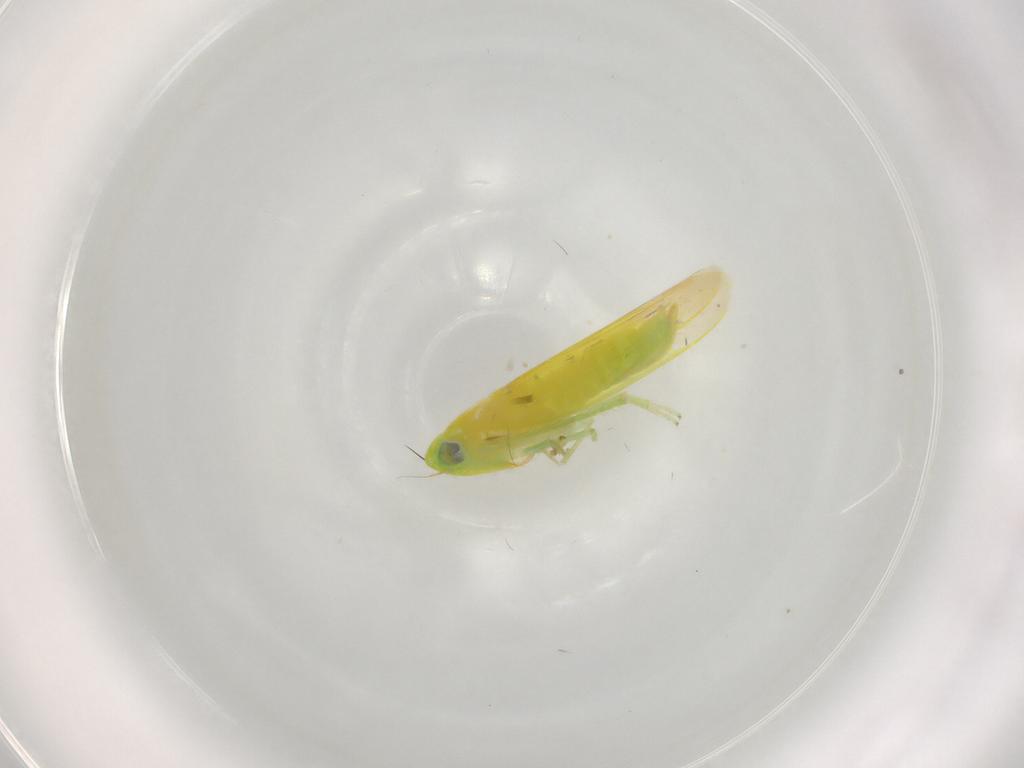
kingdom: Animalia
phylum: Arthropoda
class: Insecta
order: Hemiptera
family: Cicadellidae
